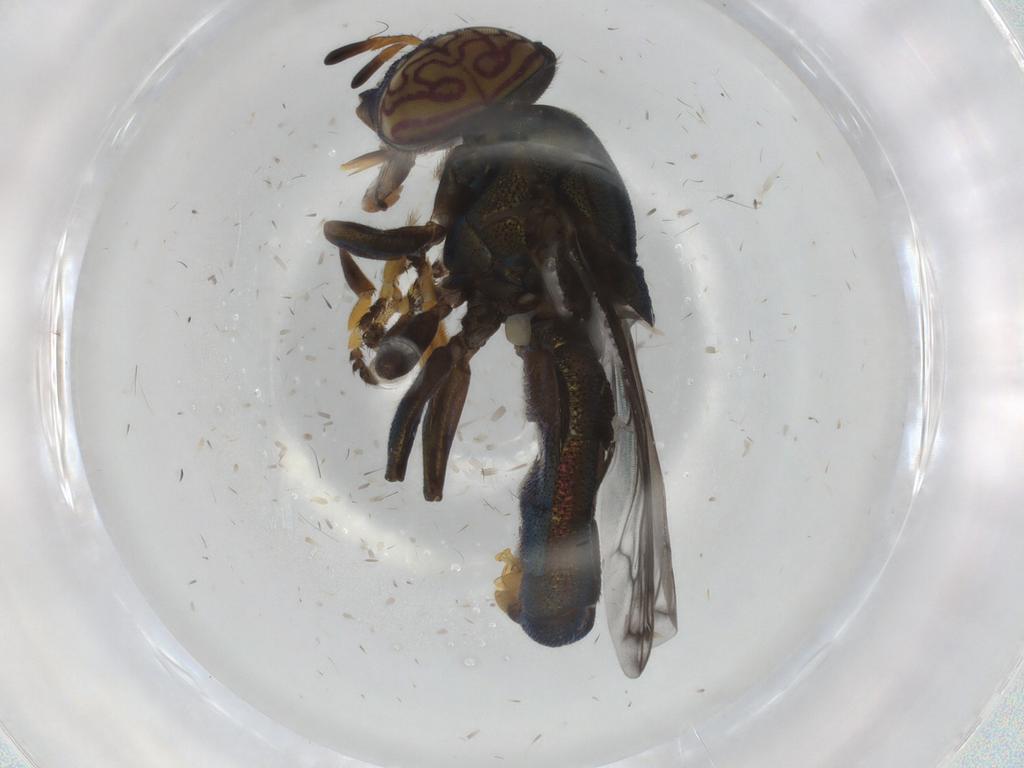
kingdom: Animalia
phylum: Arthropoda
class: Insecta
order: Diptera
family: Syrphidae
